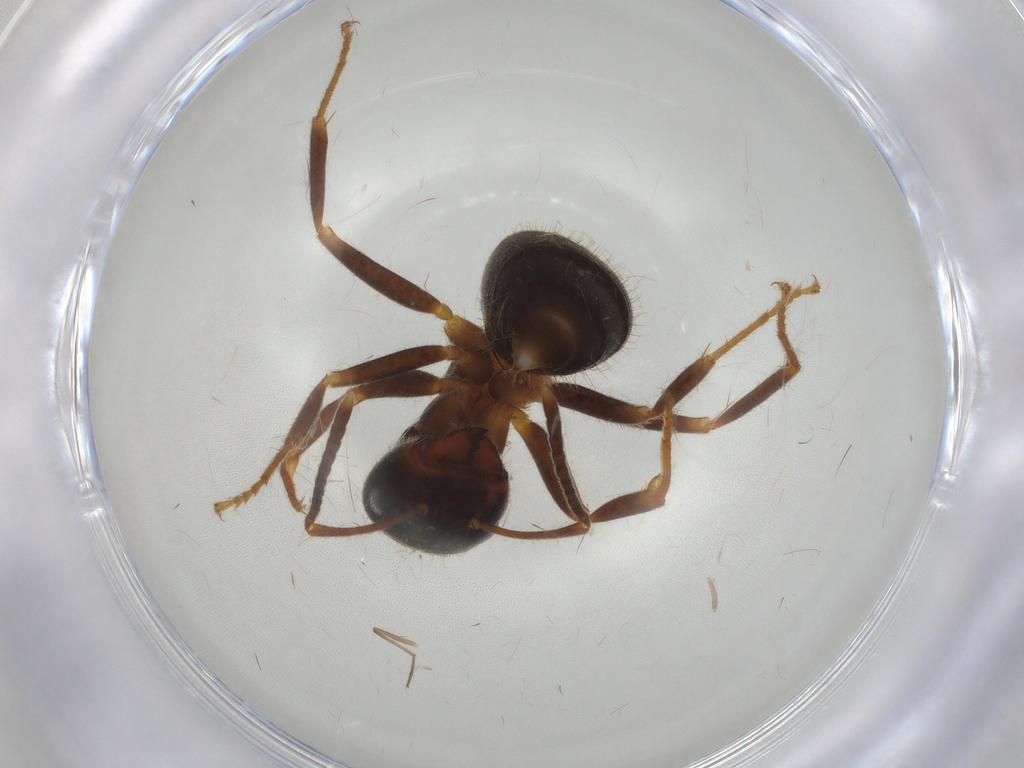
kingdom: Animalia
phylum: Arthropoda
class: Insecta
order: Hymenoptera
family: Formicidae
